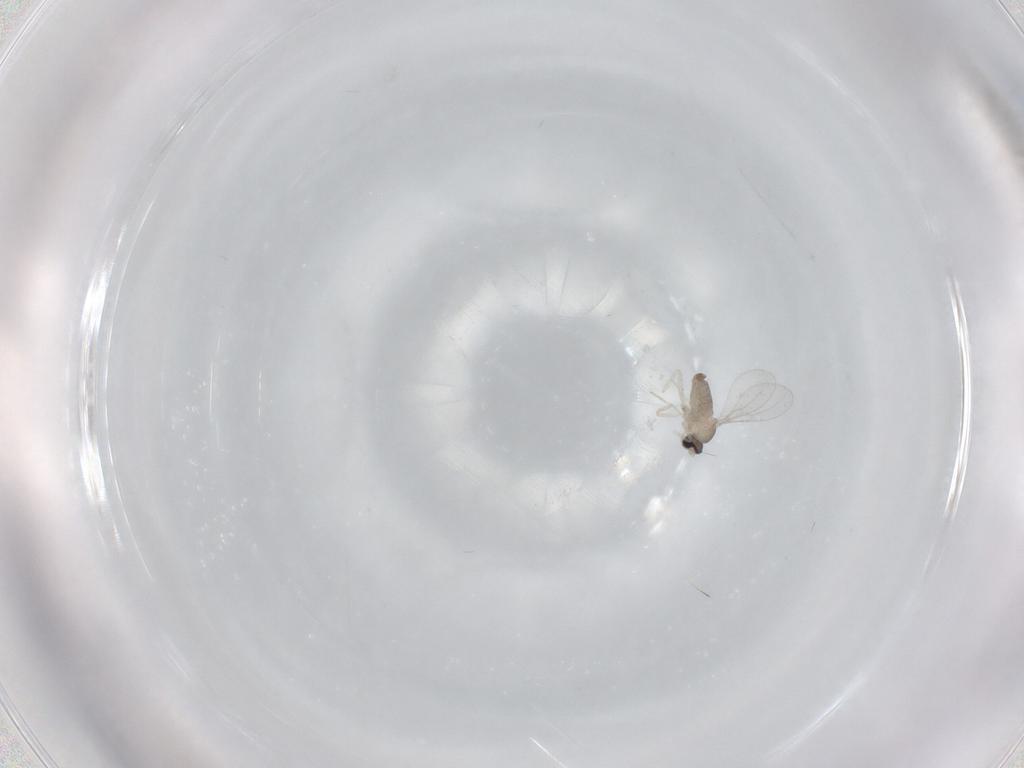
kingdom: Animalia
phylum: Arthropoda
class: Insecta
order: Diptera
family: Cecidomyiidae
